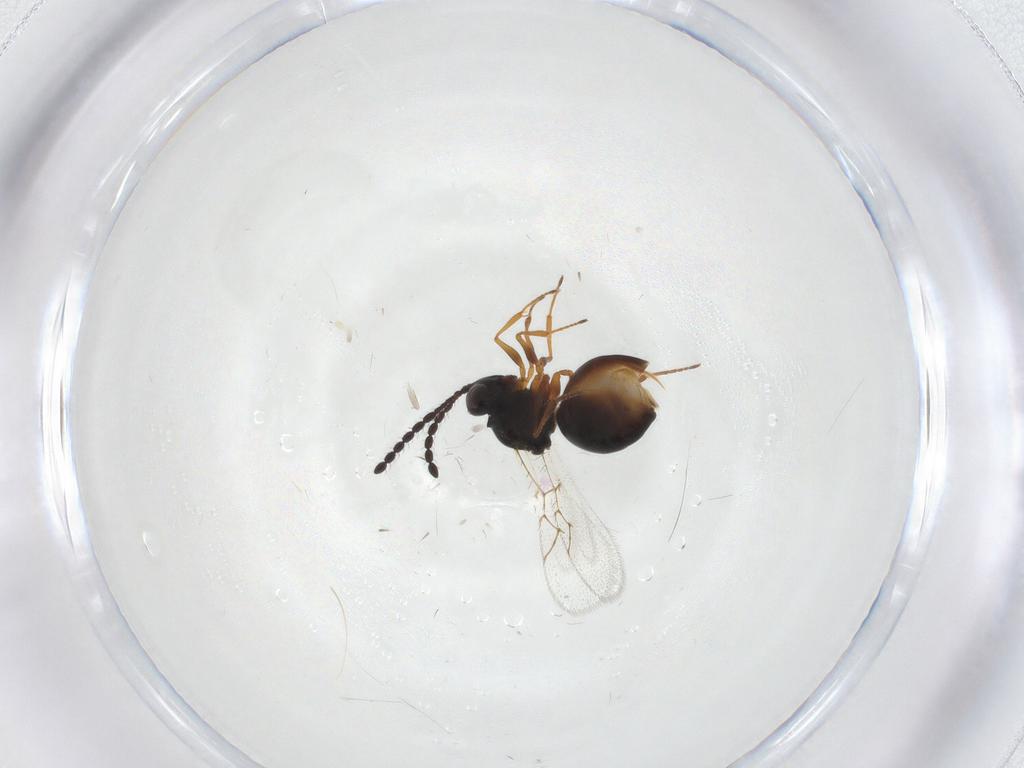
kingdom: Animalia
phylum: Arthropoda
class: Insecta
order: Hymenoptera
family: Figitidae
